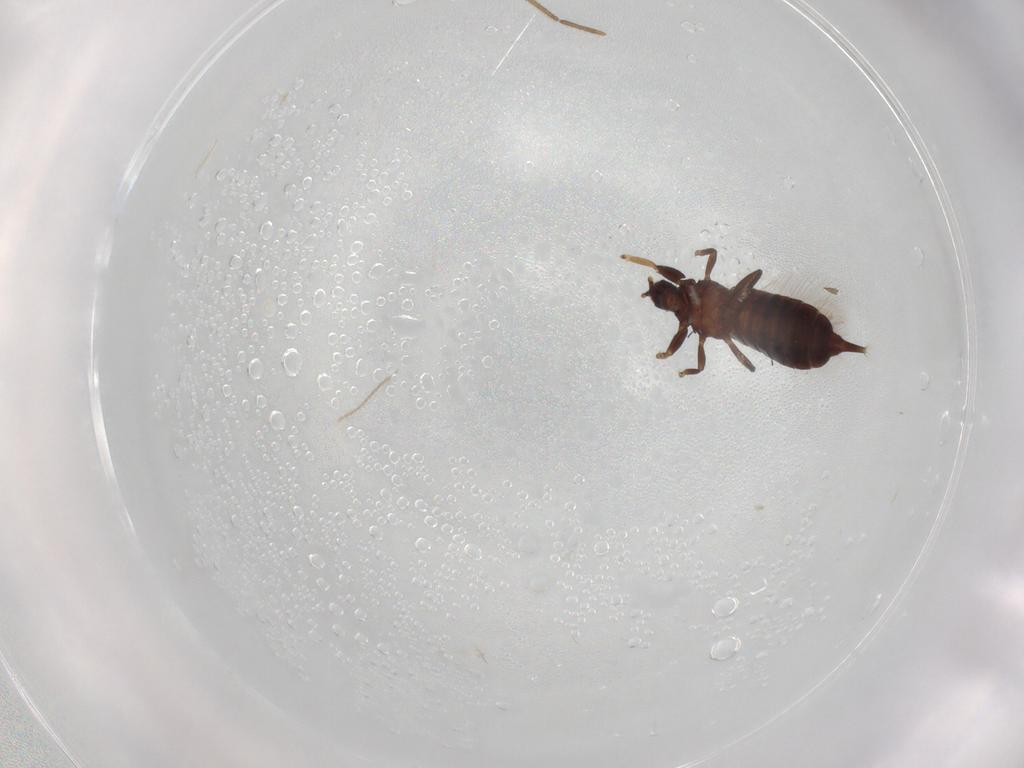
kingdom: Animalia
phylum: Arthropoda
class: Insecta
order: Thysanoptera
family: Phlaeothripidae
